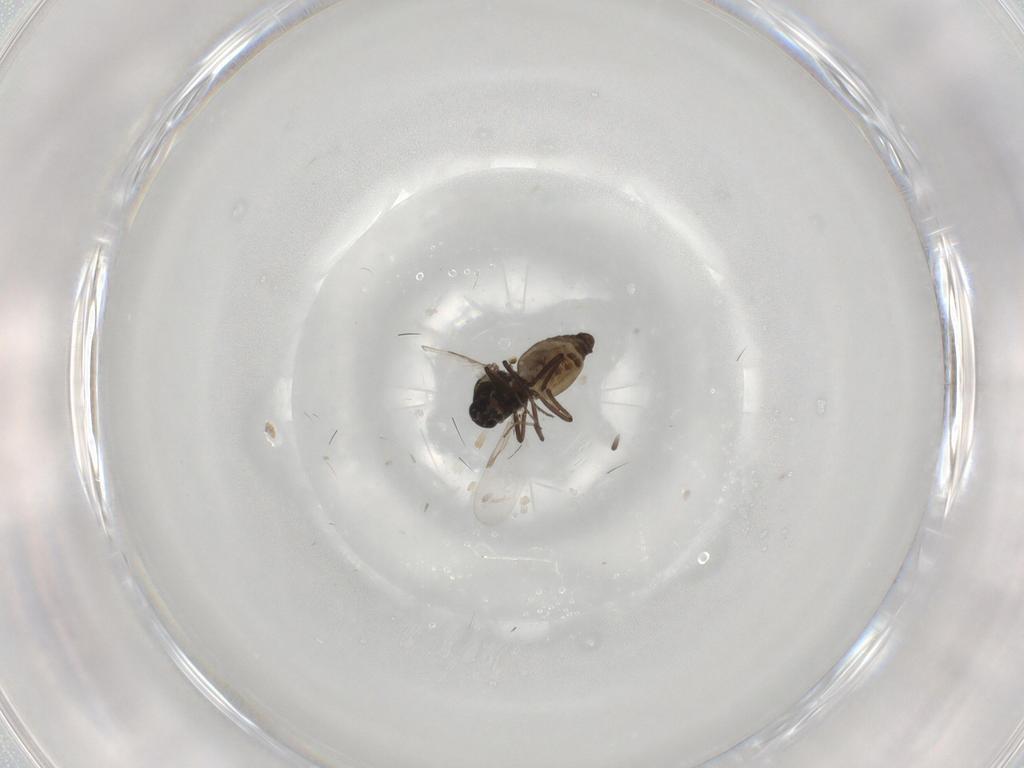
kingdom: Animalia
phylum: Arthropoda
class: Insecta
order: Diptera
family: Ceratopogonidae
